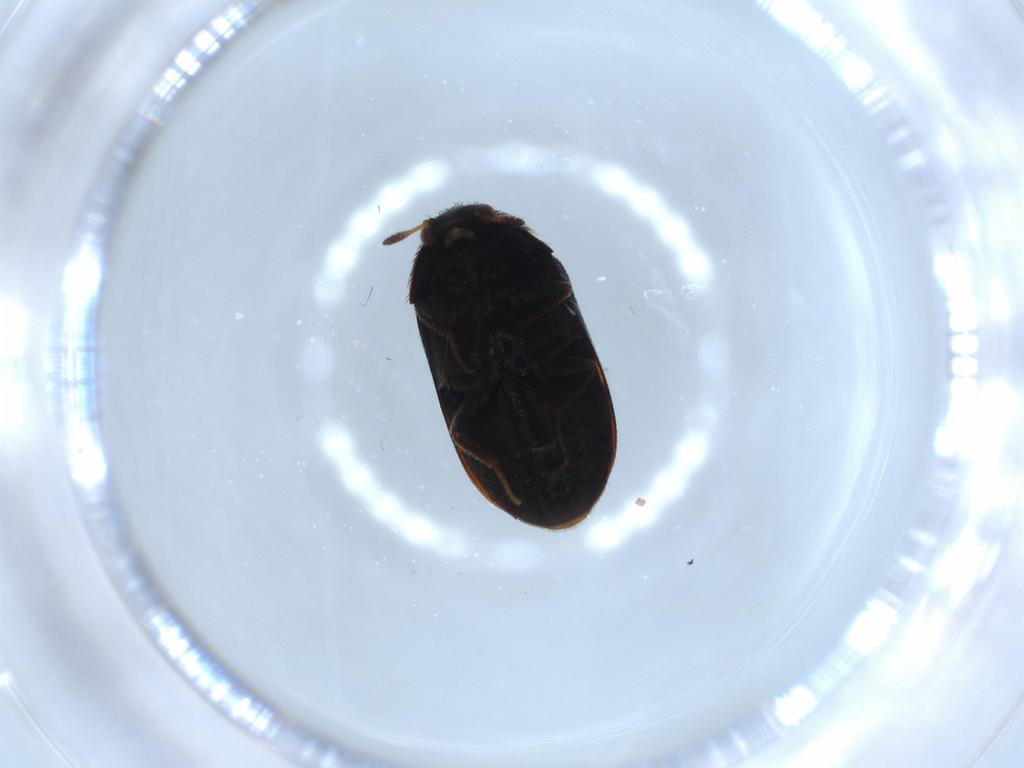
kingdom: Animalia
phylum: Arthropoda
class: Insecta
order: Coleoptera
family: Dermestidae
